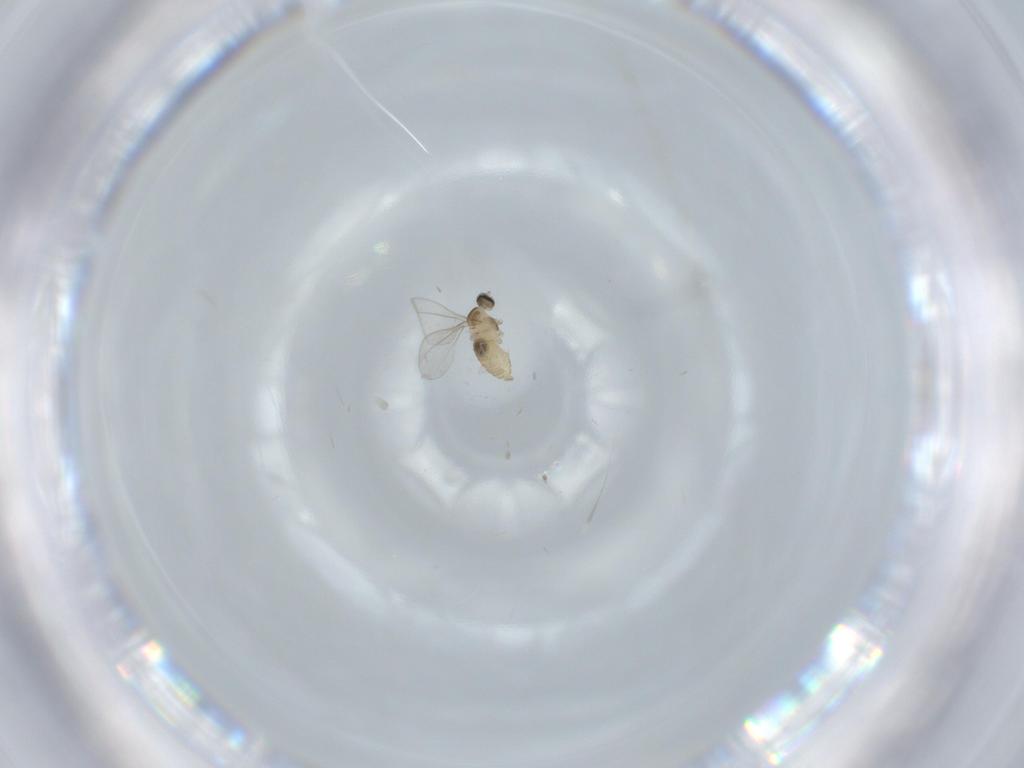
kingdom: Animalia
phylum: Arthropoda
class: Insecta
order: Diptera
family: Cecidomyiidae
